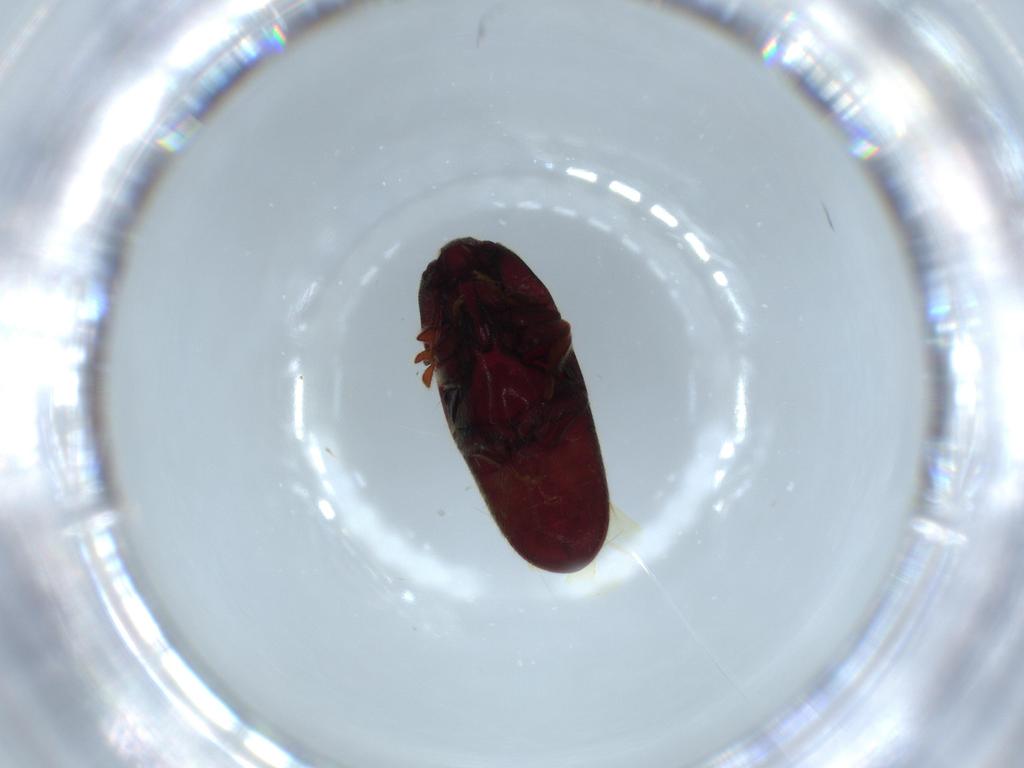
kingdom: Animalia
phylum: Arthropoda
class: Insecta
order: Coleoptera
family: Throscidae
